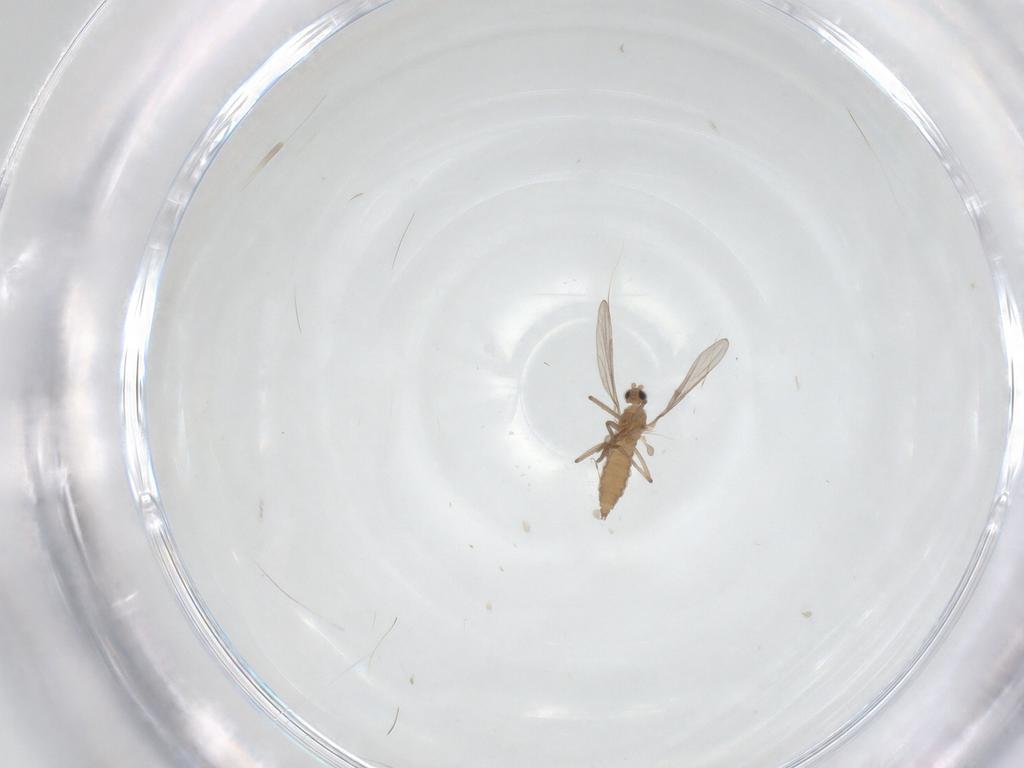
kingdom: Animalia
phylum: Arthropoda
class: Insecta
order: Diptera
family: Cecidomyiidae
